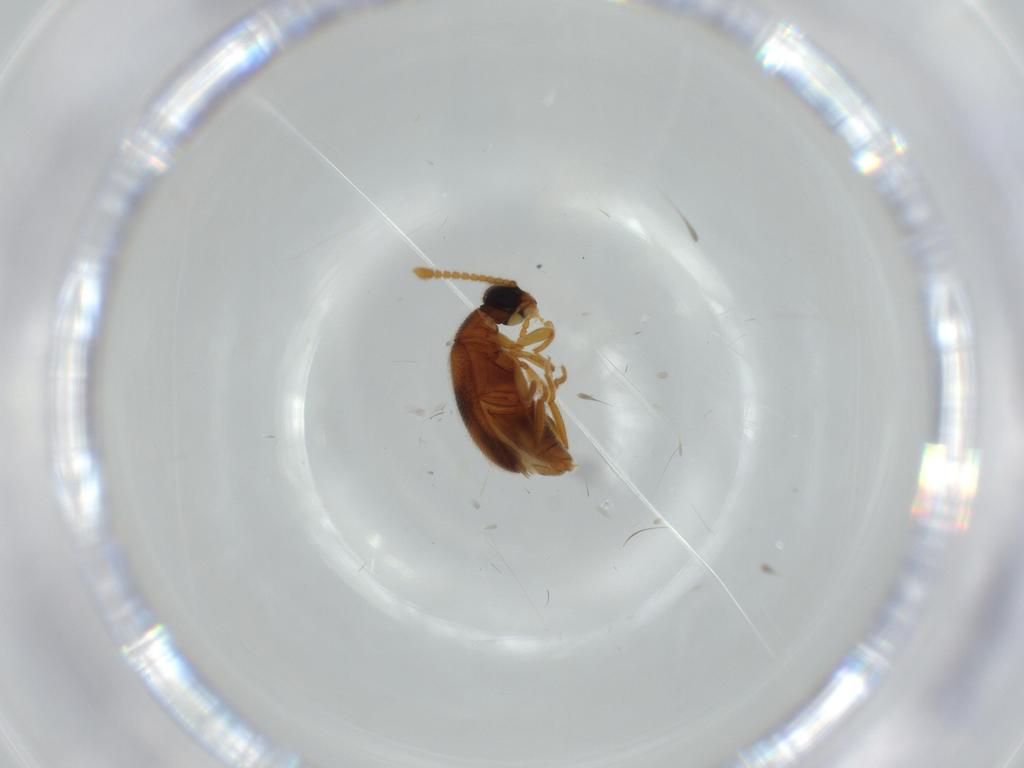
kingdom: Animalia
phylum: Arthropoda
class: Insecta
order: Coleoptera
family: Aderidae
